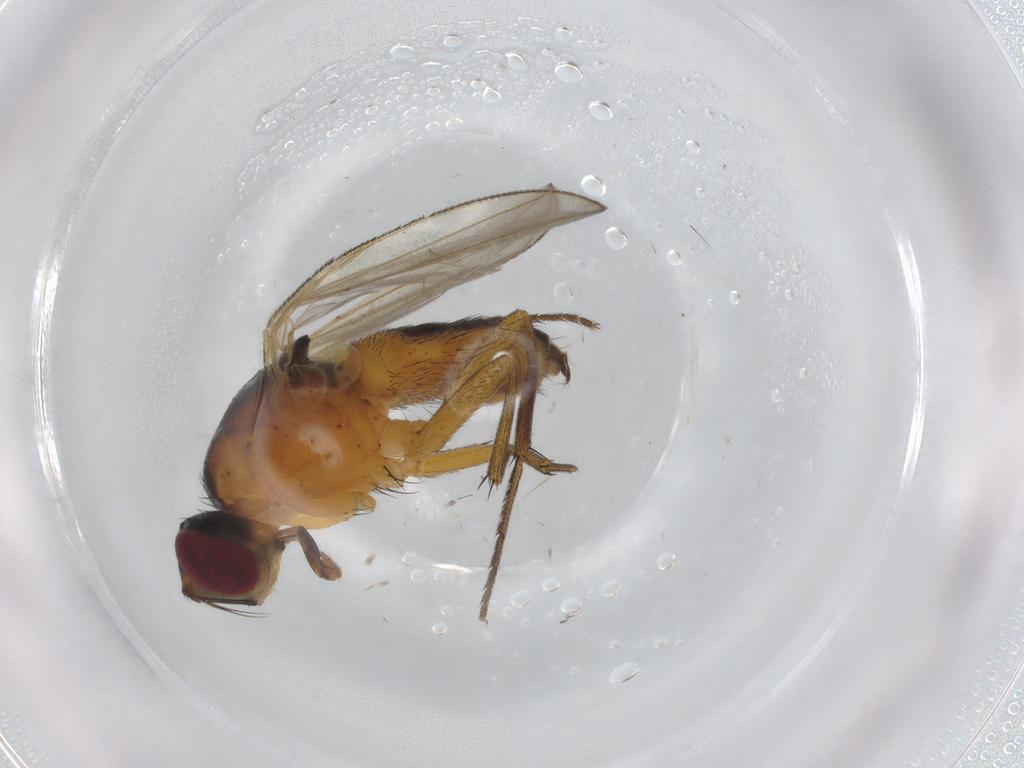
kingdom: Animalia
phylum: Arthropoda
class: Insecta
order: Diptera
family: Muscidae
